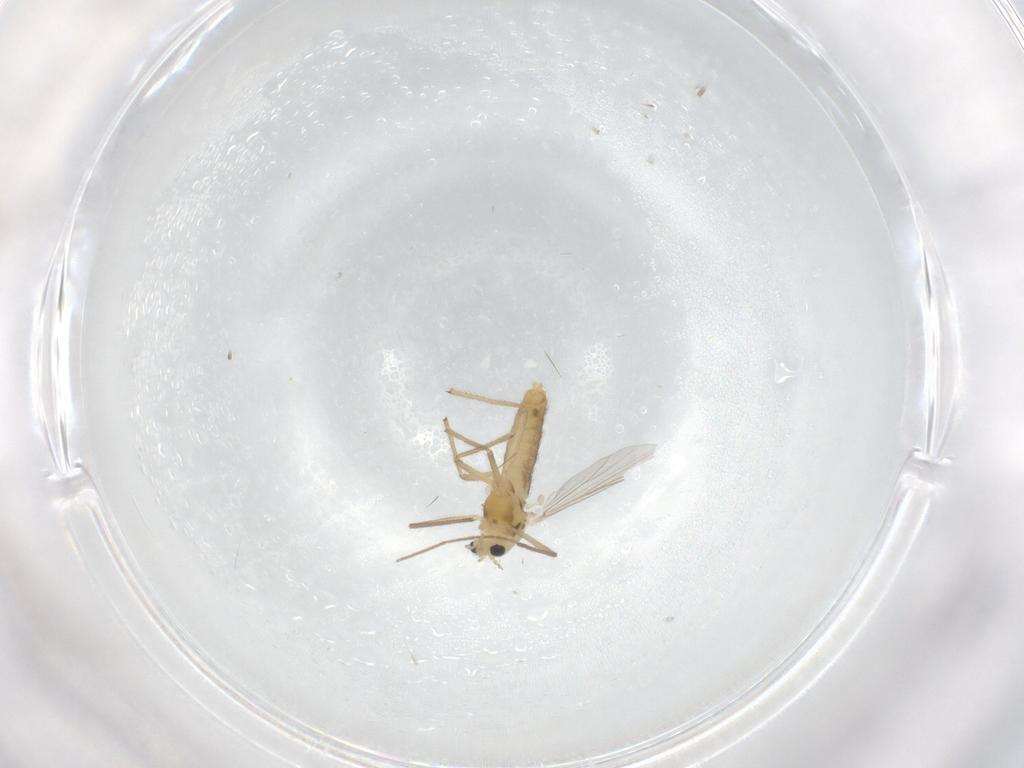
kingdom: Animalia
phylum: Arthropoda
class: Insecta
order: Diptera
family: Chironomidae
